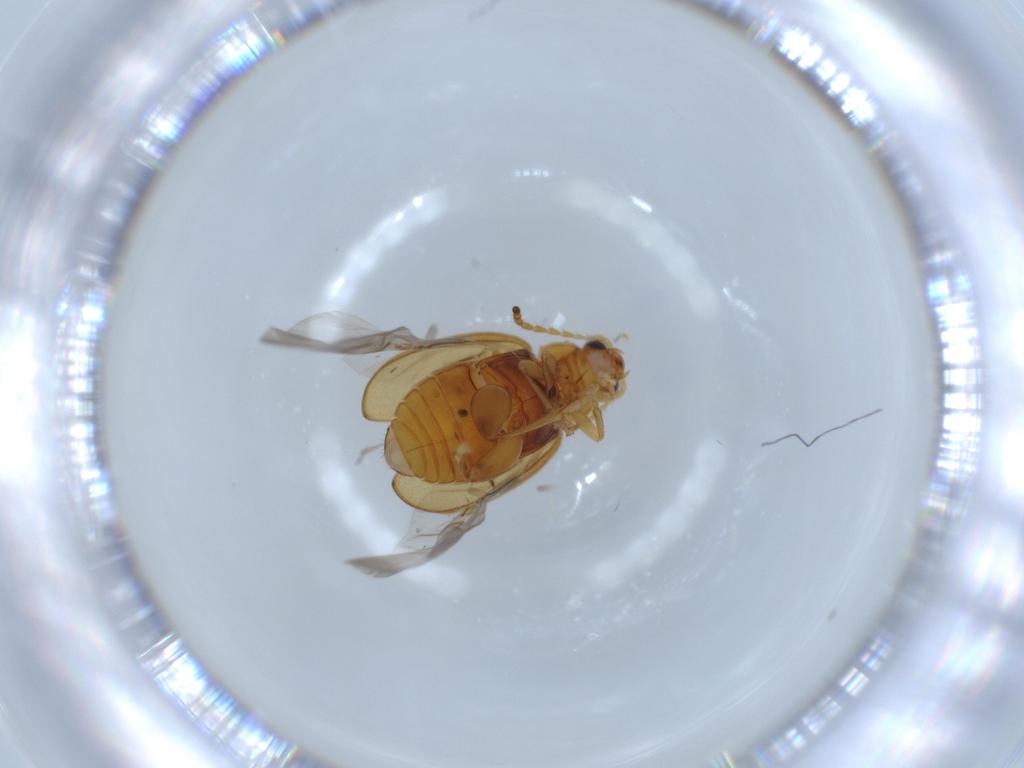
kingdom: Animalia
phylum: Arthropoda
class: Insecta
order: Coleoptera
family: Chrysomelidae
